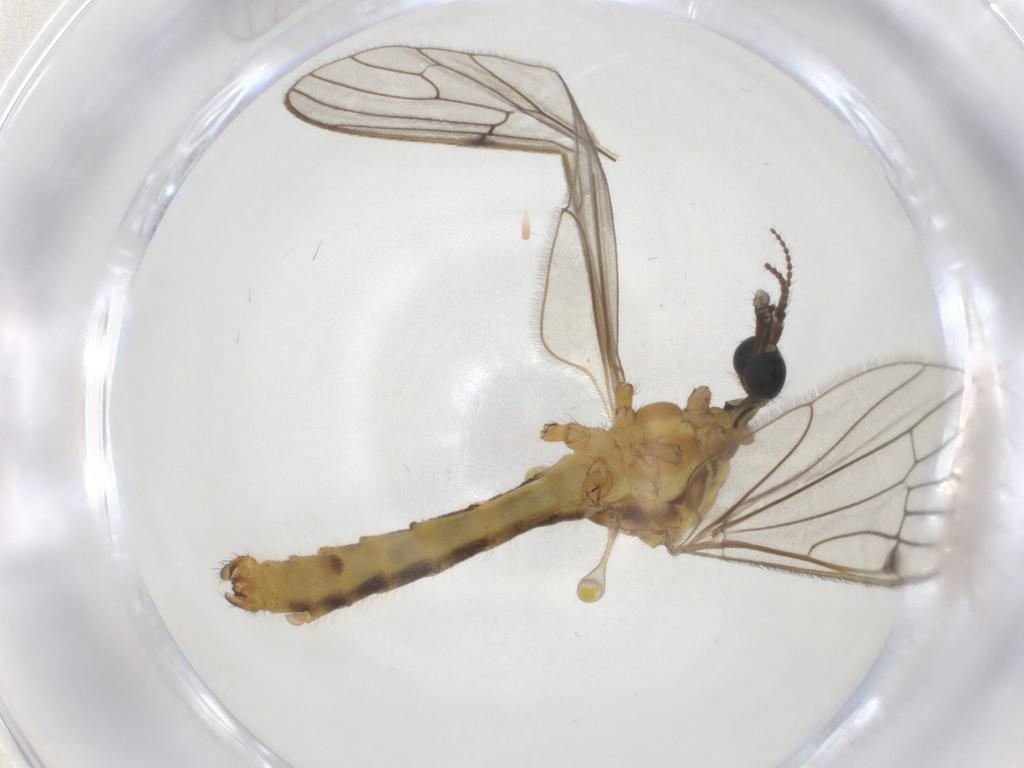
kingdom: Animalia
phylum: Arthropoda
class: Insecta
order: Diptera
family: Limoniidae
